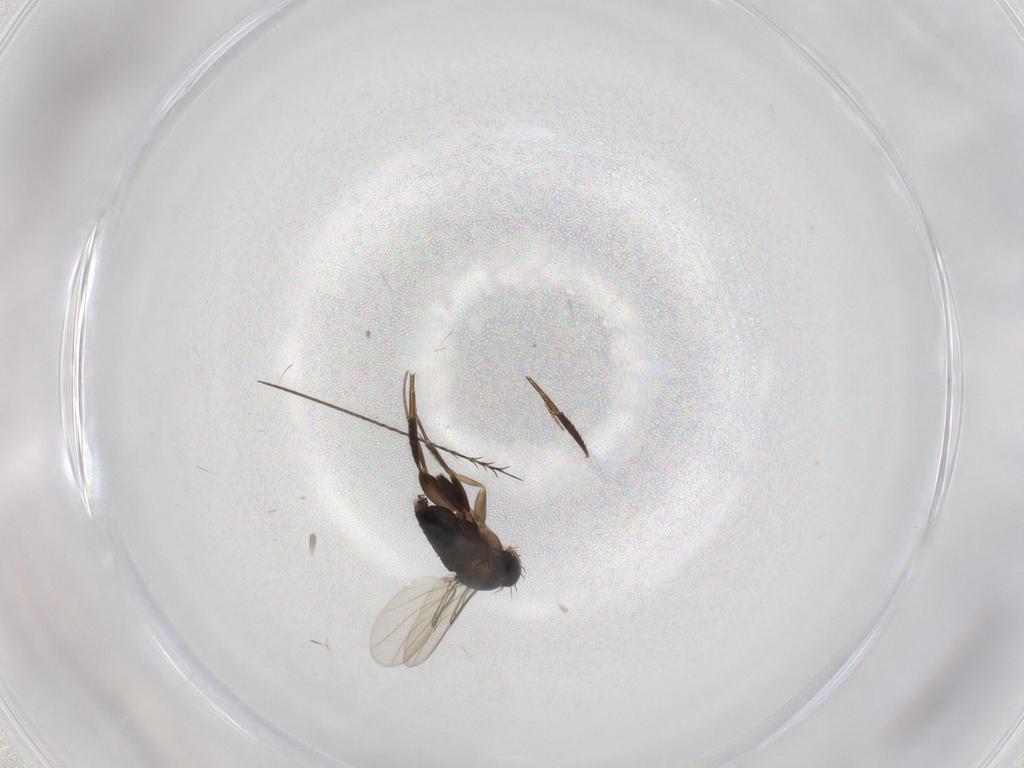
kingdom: Animalia
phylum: Arthropoda
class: Insecta
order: Diptera
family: Phoridae
